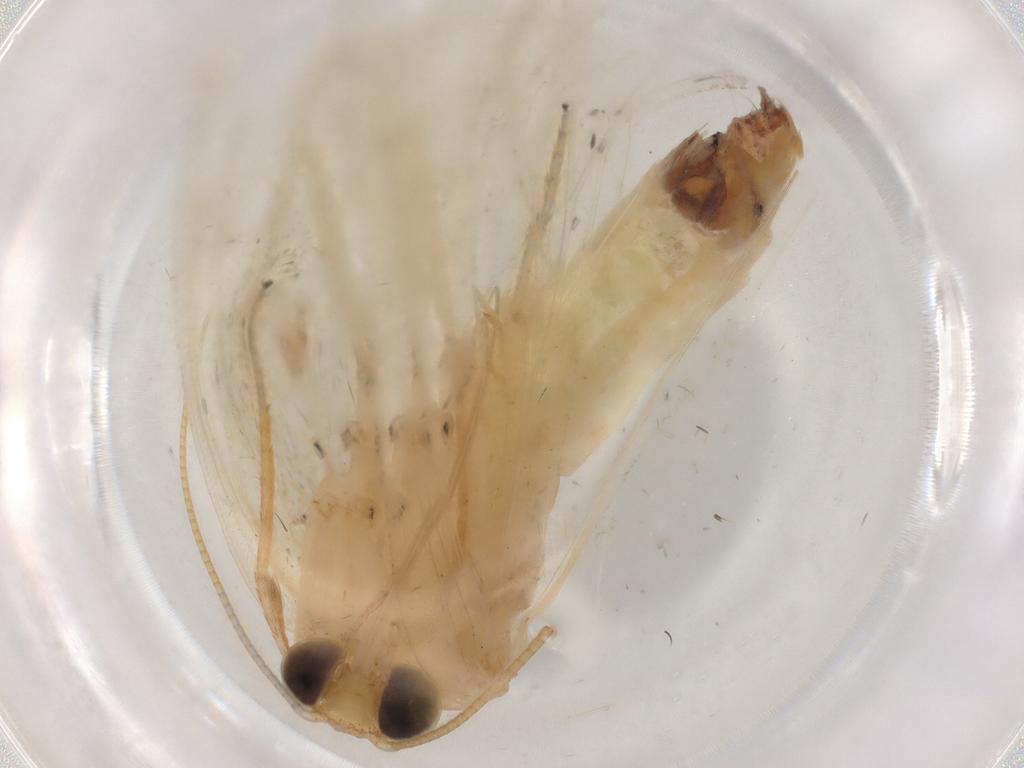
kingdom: Animalia
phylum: Arthropoda
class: Insecta
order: Lepidoptera
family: Geometridae
